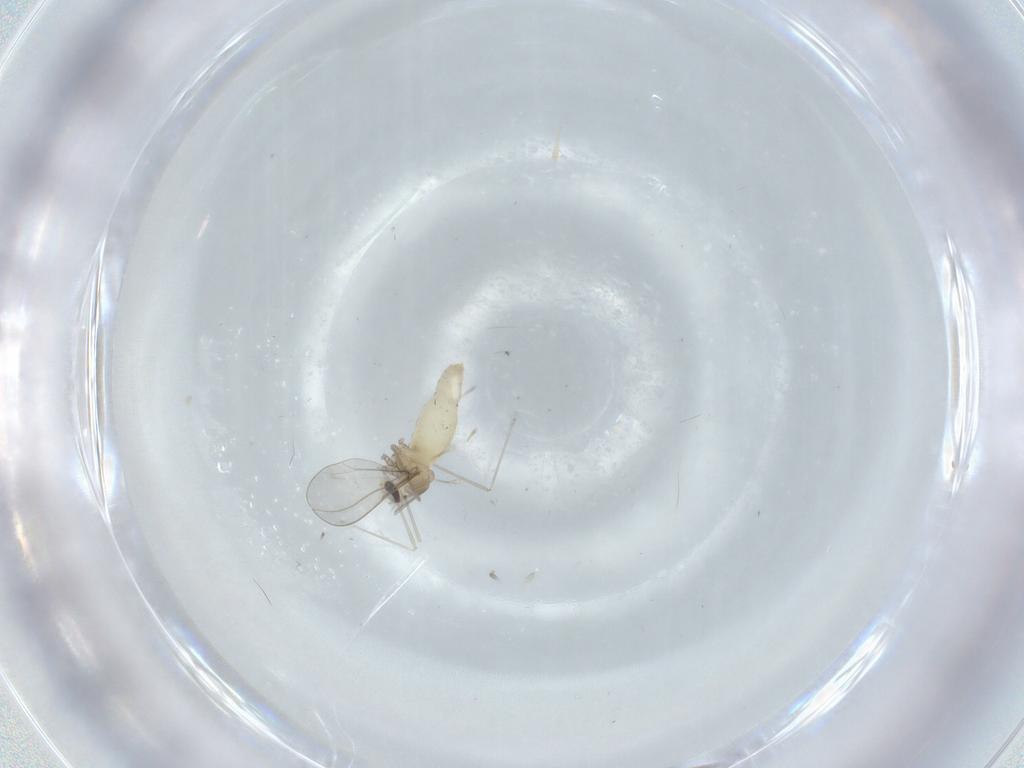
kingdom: Animalia
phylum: Arthropoda
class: Insecta
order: Diptera
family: Cecidomyiidae
